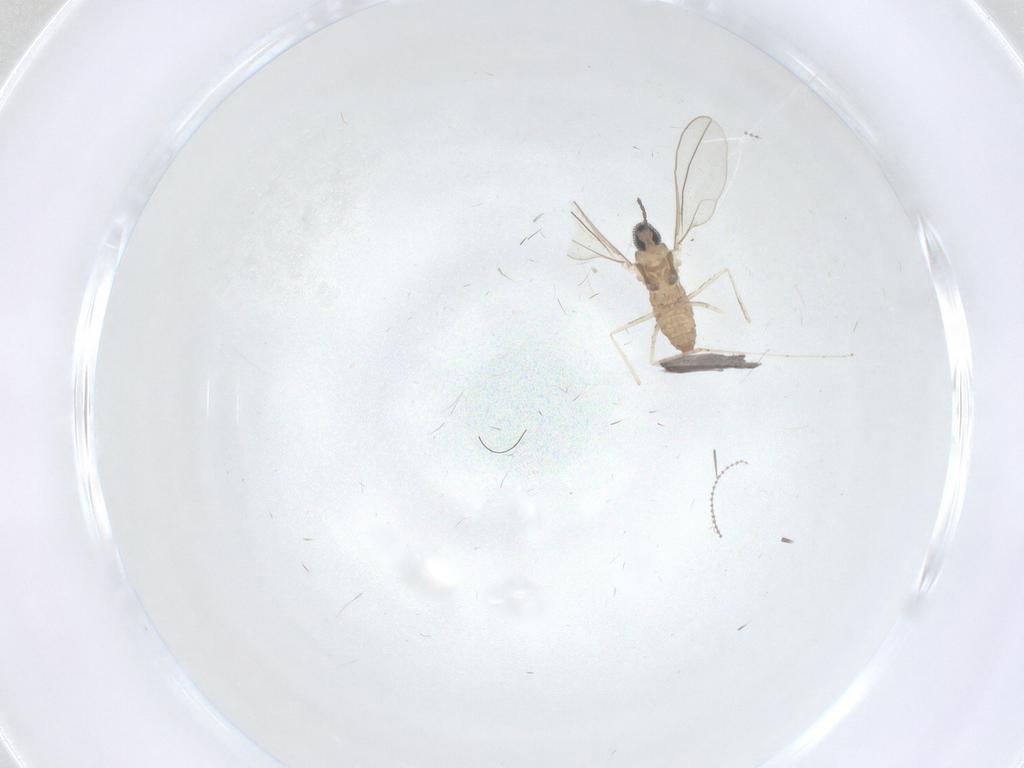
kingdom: Animalia
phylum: Arthropoda
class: Insecta
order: Diptera
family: Cecidomyiidae
